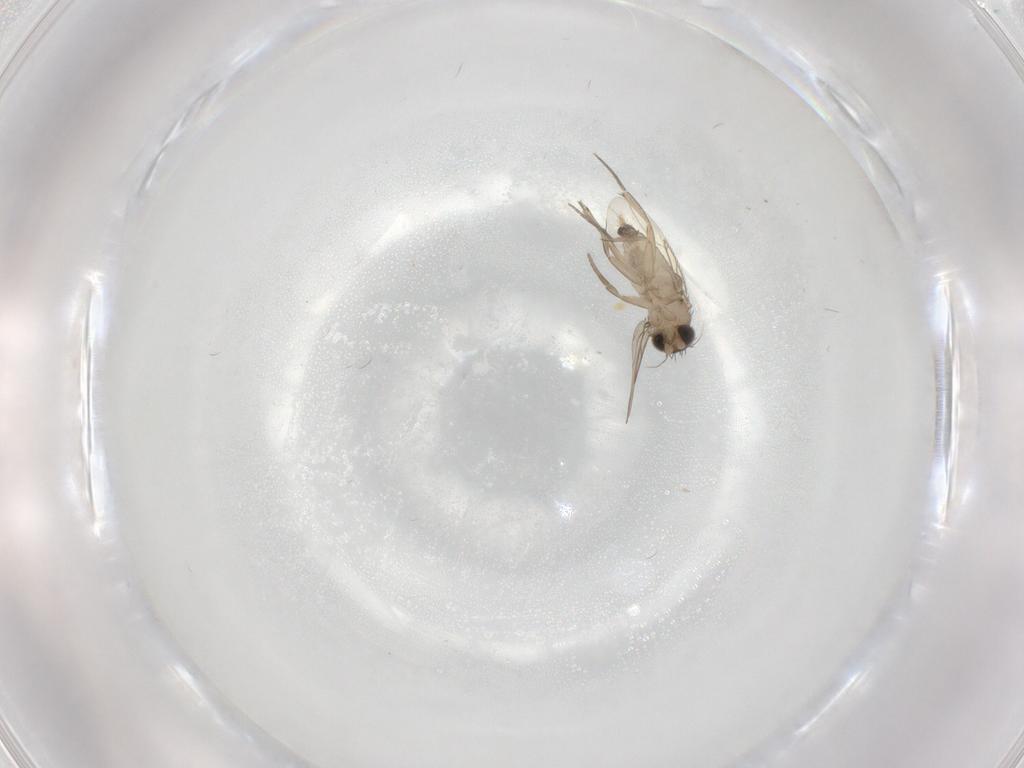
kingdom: Animalia
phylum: Arthropoda
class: Insecta
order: Diptera
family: Phoridae
